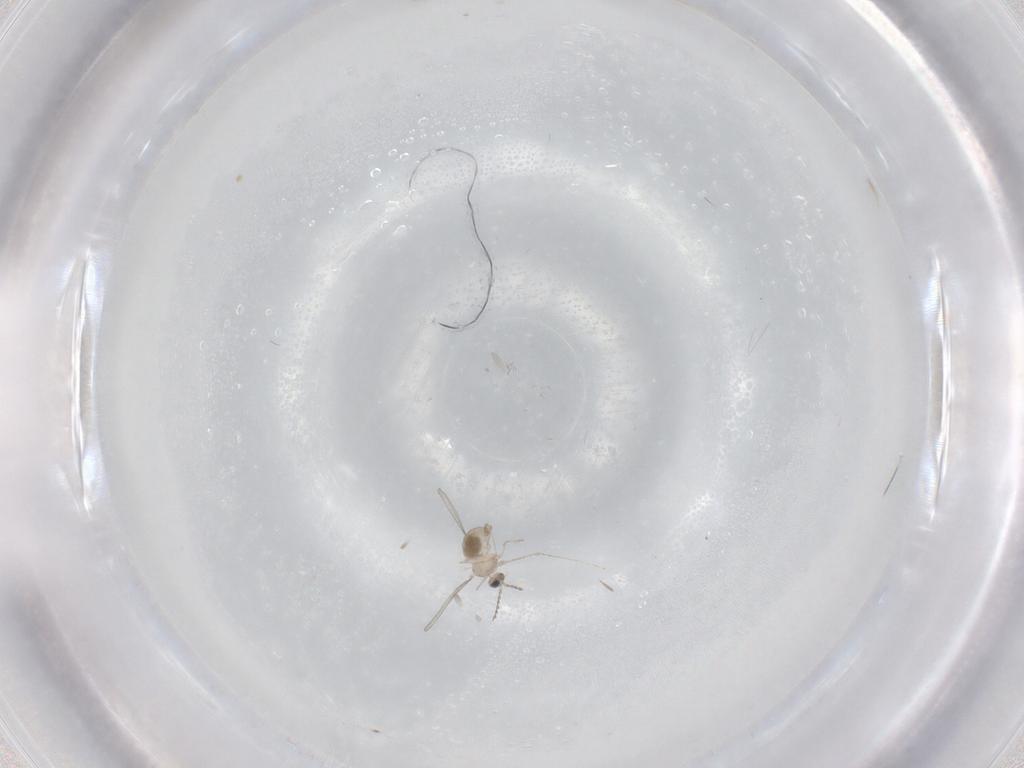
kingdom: Animalia
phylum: Arthropoda
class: Insecta
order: Diptera
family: Cecidomyiidae
